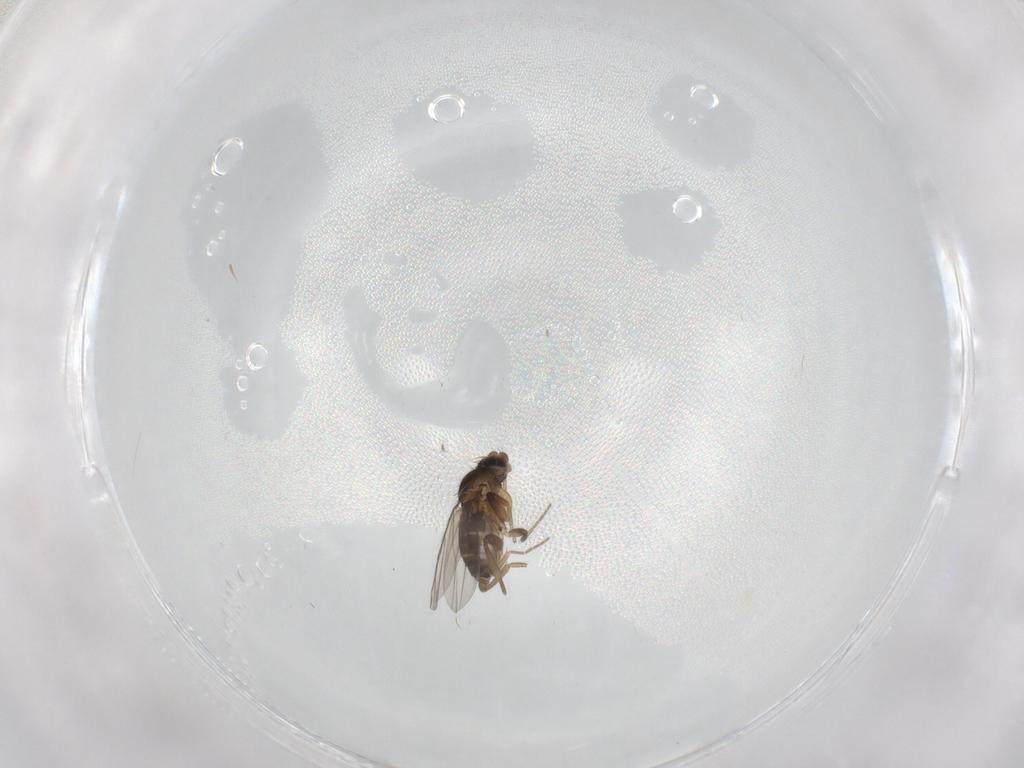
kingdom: Animalia
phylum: Arthropoda
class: Insecta
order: Diptera
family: Phoridae
